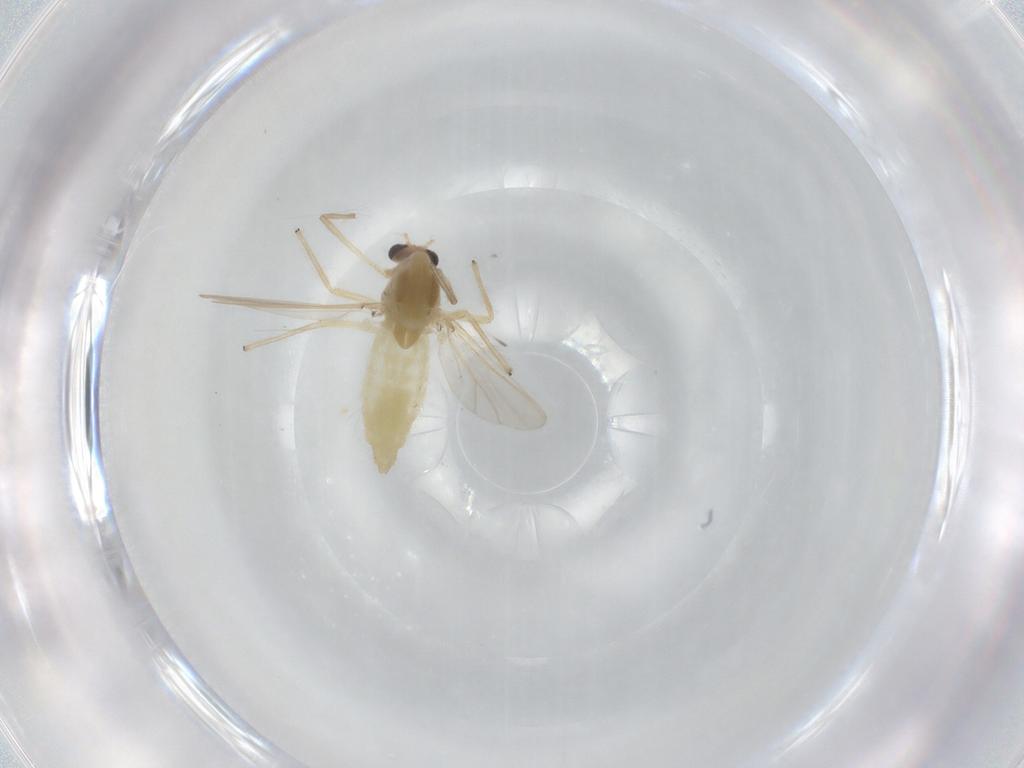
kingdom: Animalia
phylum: Arthropoda
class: Insecta
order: Diptera
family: Chironomidae
